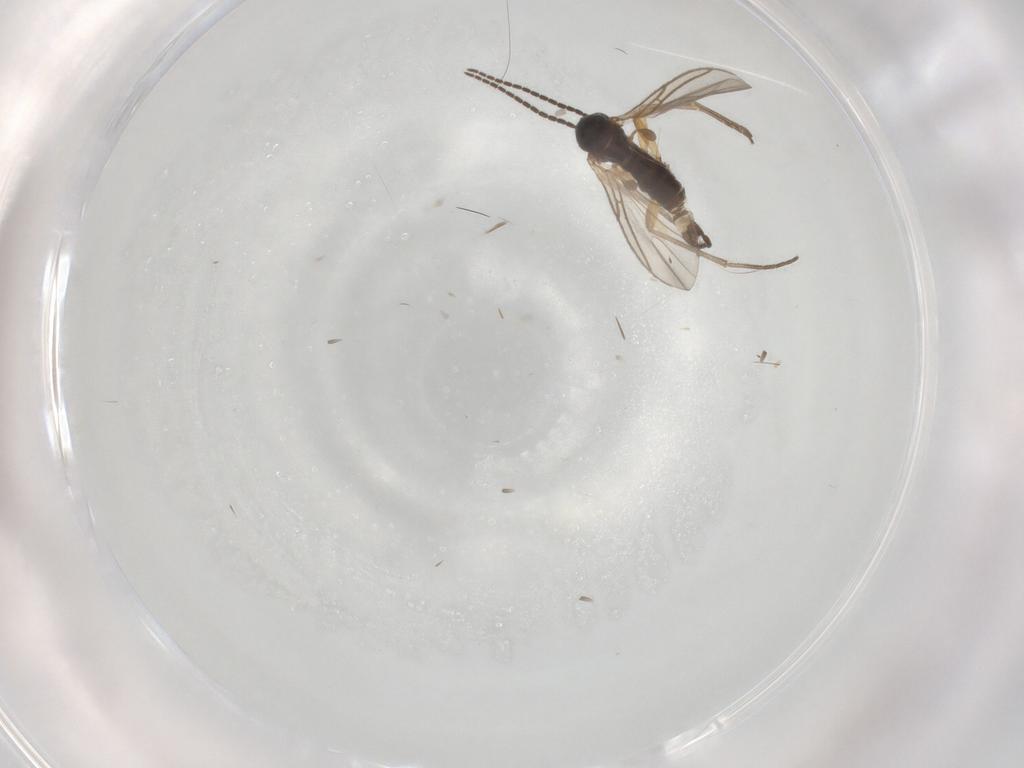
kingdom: Animalia
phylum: Arthropoda
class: Insecta
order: Diptera
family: Sciaridae
